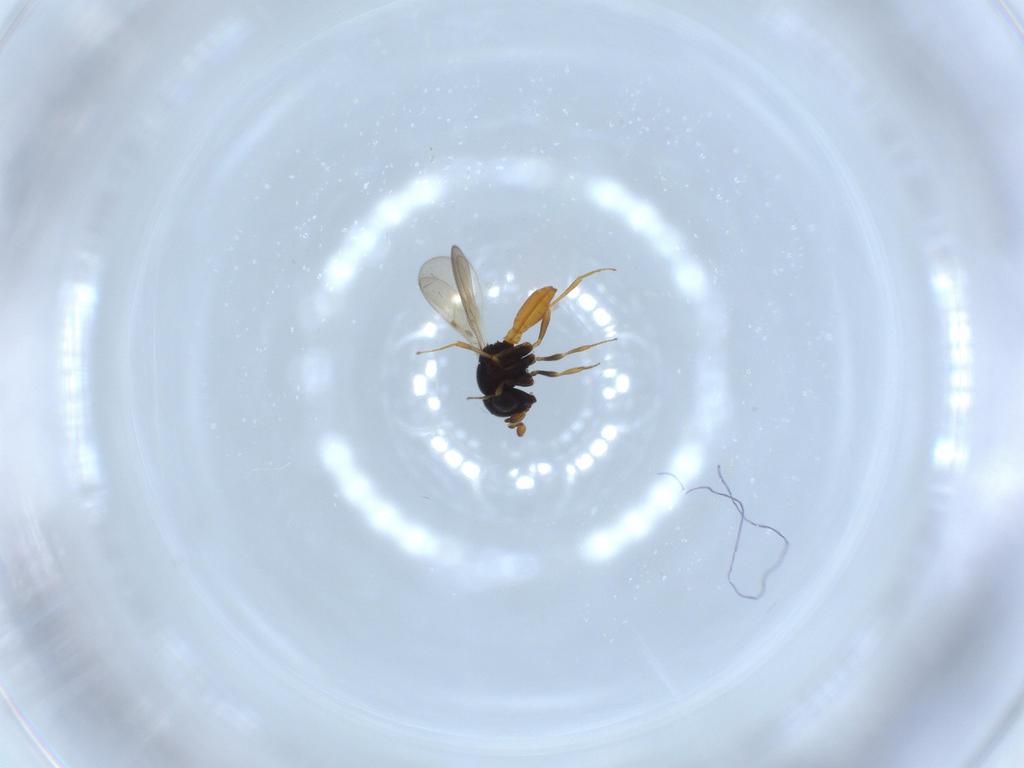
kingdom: Animalia
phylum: Arthropoda
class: Insecta
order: Hymenoptera
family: Scelionidae
